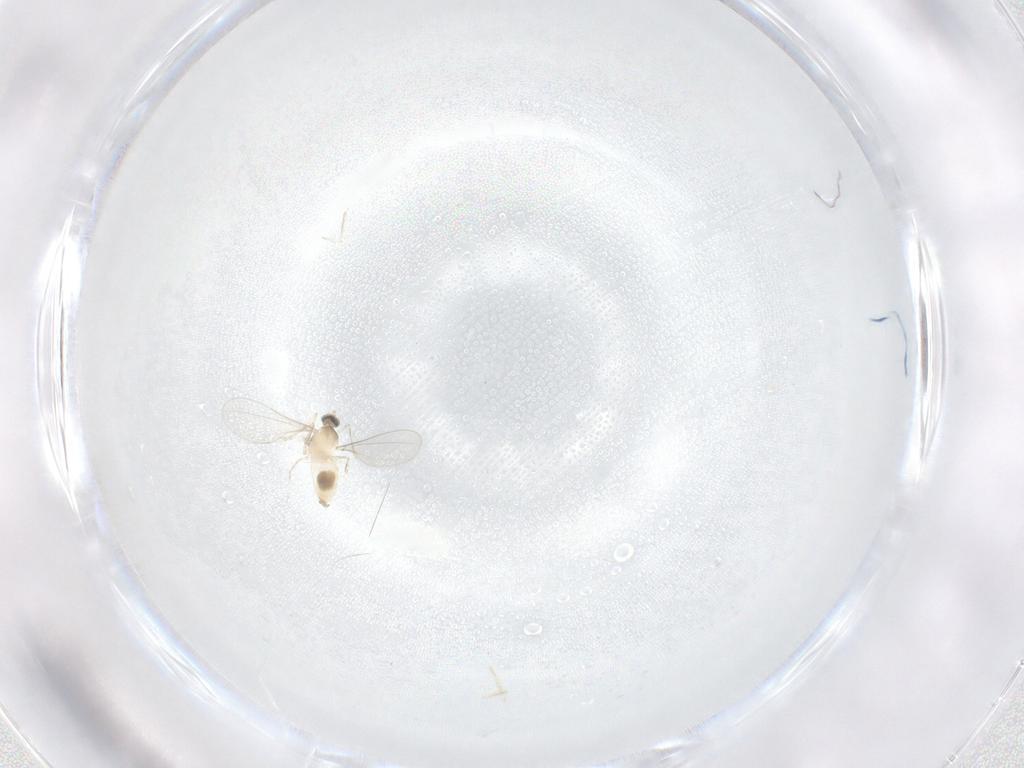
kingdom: Animalia
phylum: Arthropoda
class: Insecta
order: Diptera
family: Cecidomyiidae
